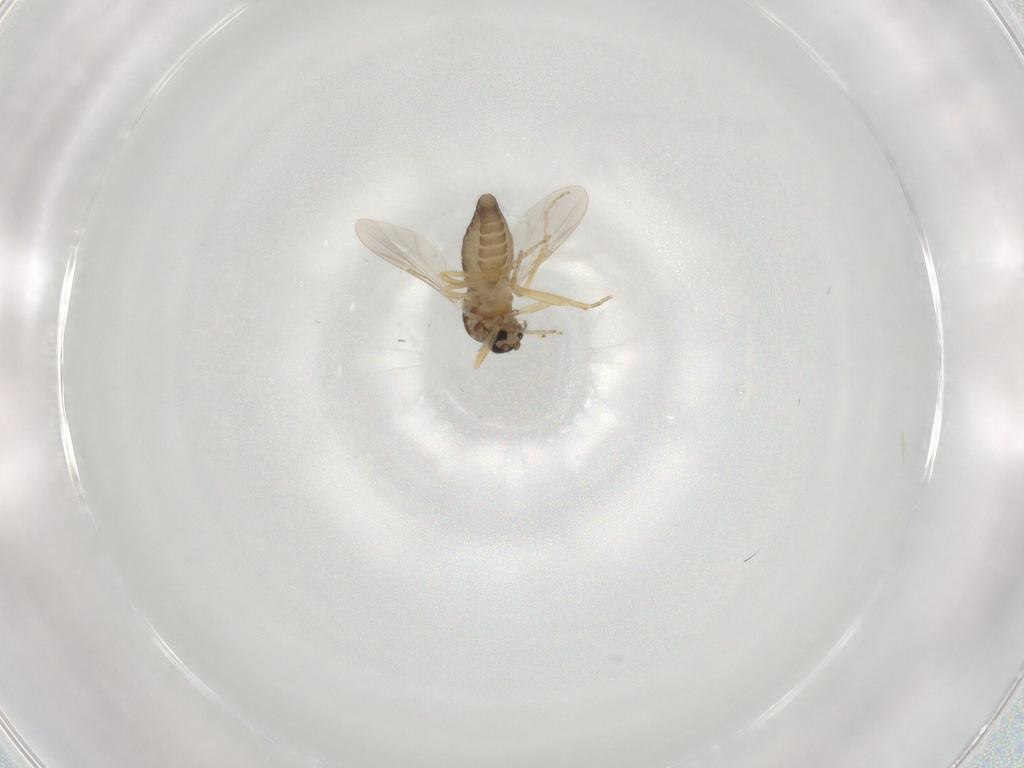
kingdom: Animalia
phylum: Arthropoda
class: Insecta
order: Diptera
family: Ceratopogonidae
